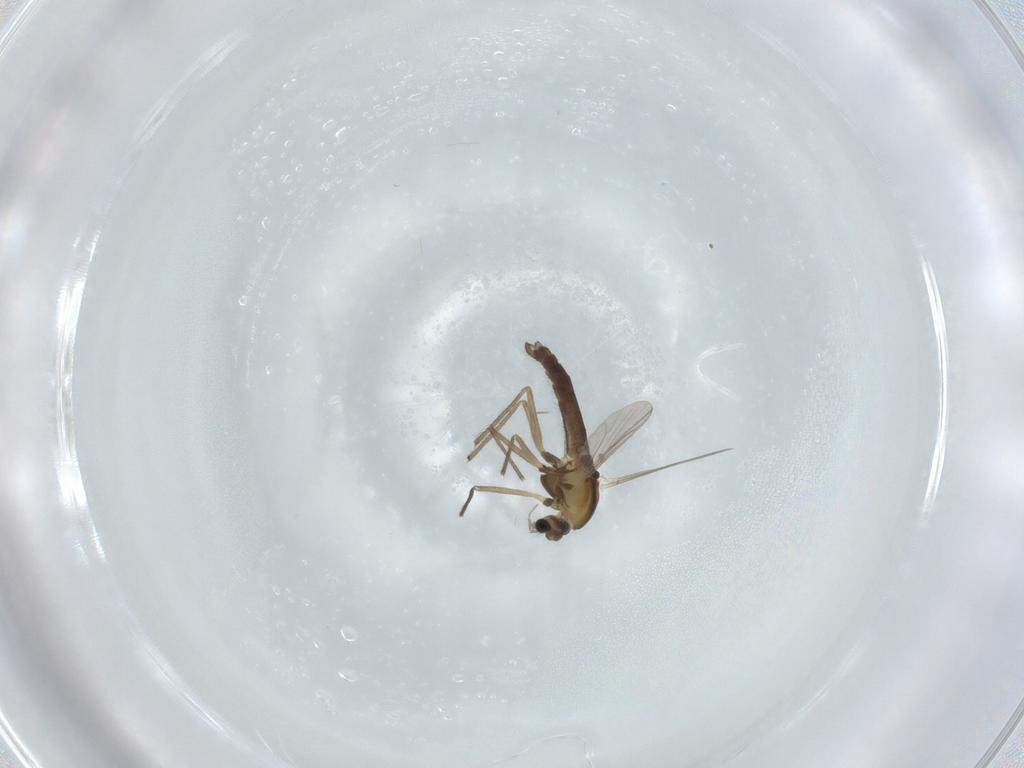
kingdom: Animalia
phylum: Arthropoda
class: Insecta
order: Diptera
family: Chironomidae
